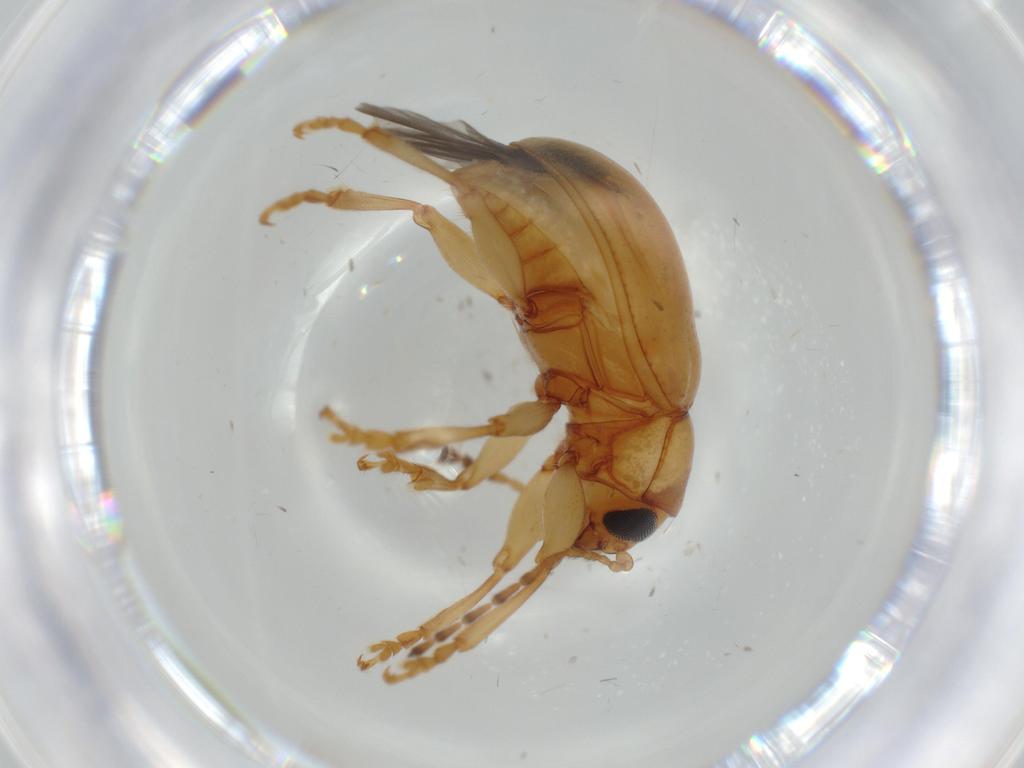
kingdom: Animalia
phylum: Arthropoda
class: Insecta
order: Coleoptera
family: Chrysomelidae
